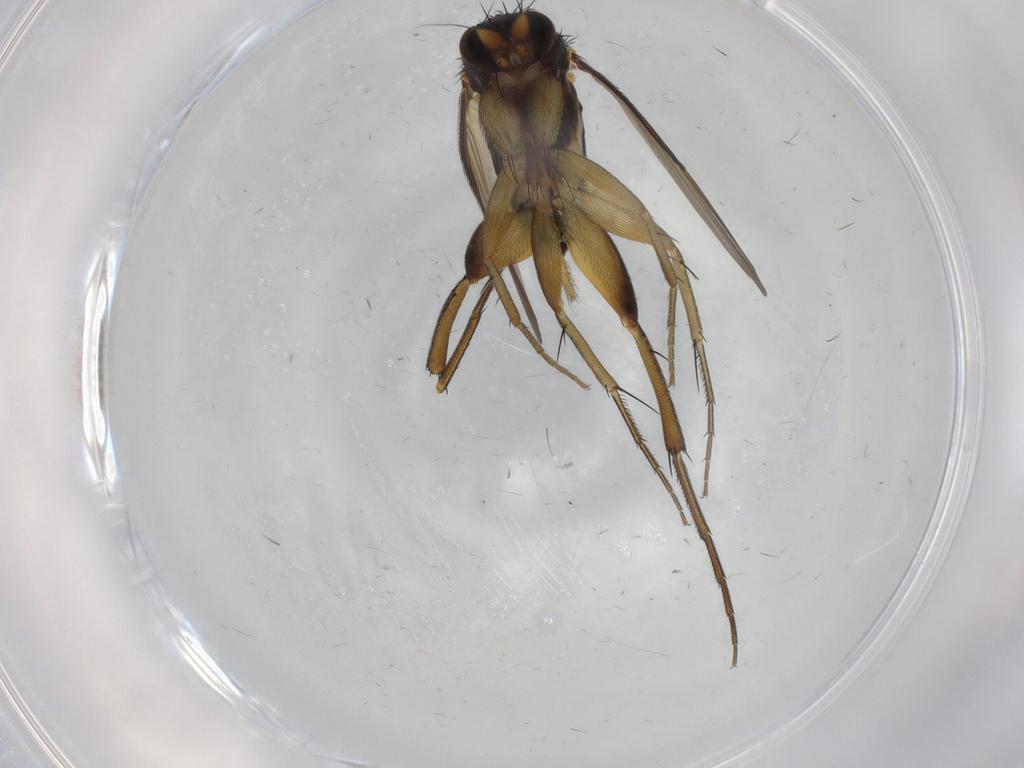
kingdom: Animalia
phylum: Arthropoda
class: Insecta
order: Diptera
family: Phoridae
